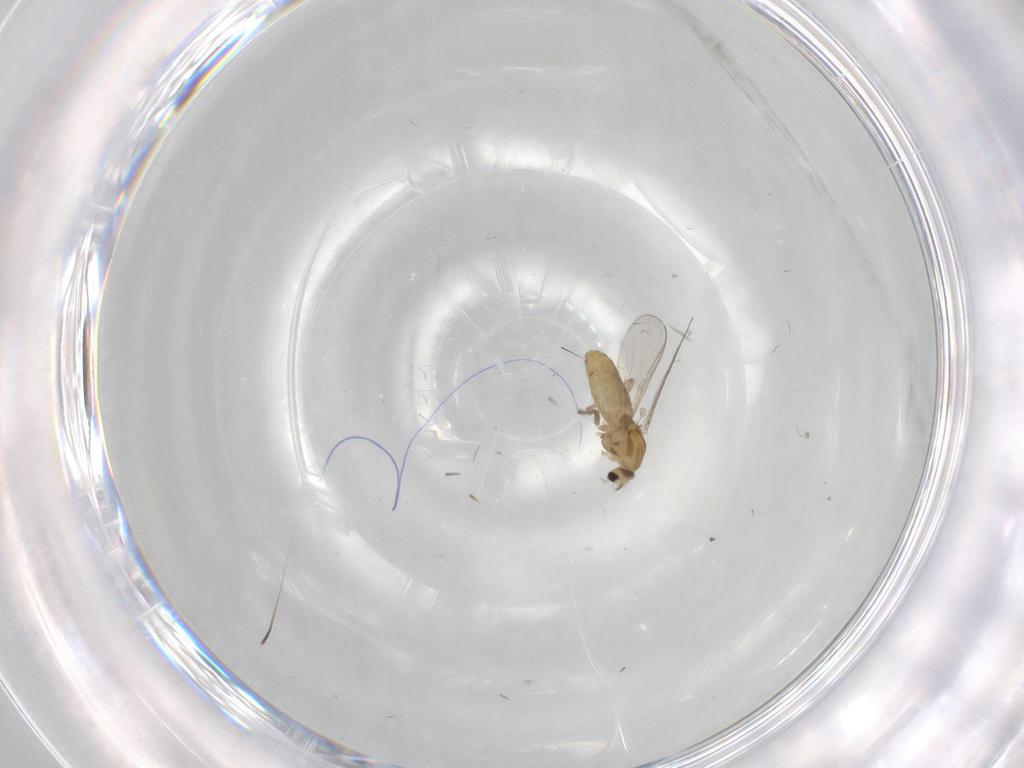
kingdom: Animalia
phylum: Arthropoda
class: Insecta
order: Diptera
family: Chironomidae
